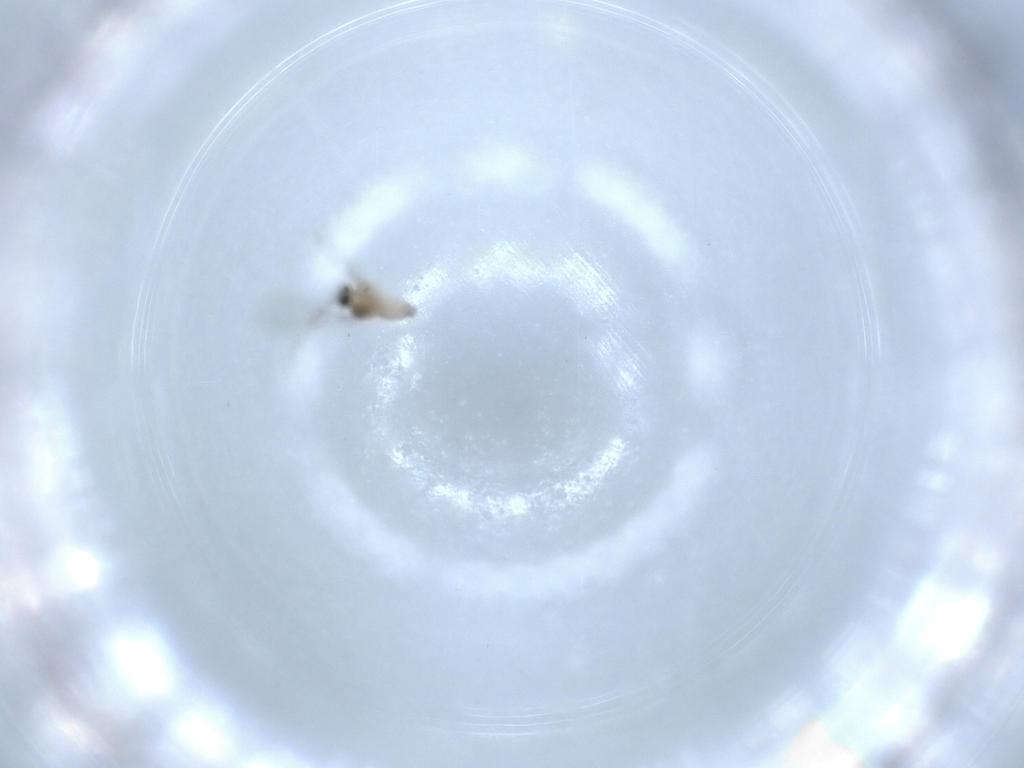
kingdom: Animalia
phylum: Arthropoda
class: Insecta
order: Diptera
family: Cecidomyiidae
